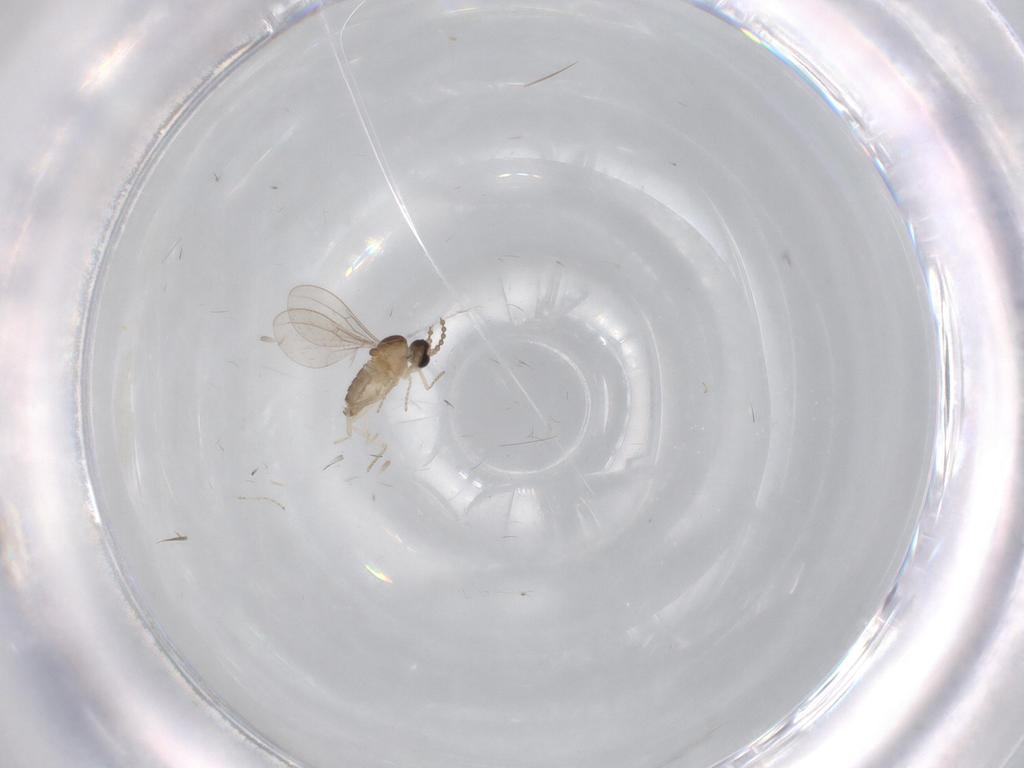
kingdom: Animalia
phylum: Arthropoda
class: Insecta
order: Diptera
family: Cecidomyiidae
